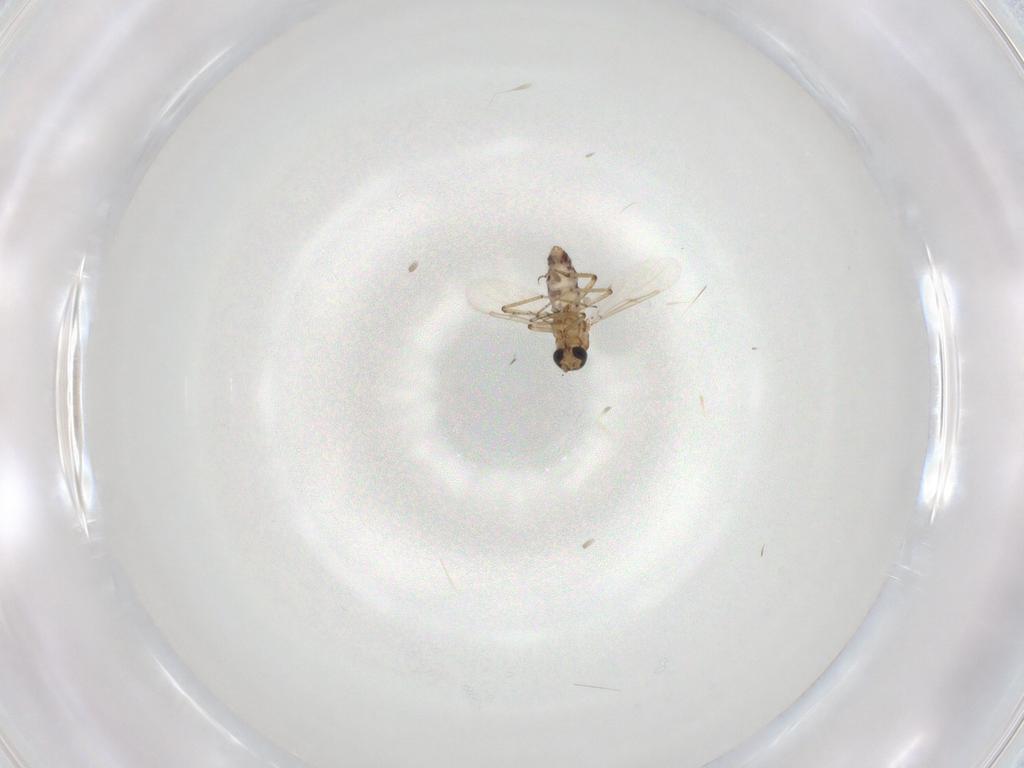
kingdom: Animalia
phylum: Arthropoda
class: Insecta
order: Diptera
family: Ceratopogonidae
